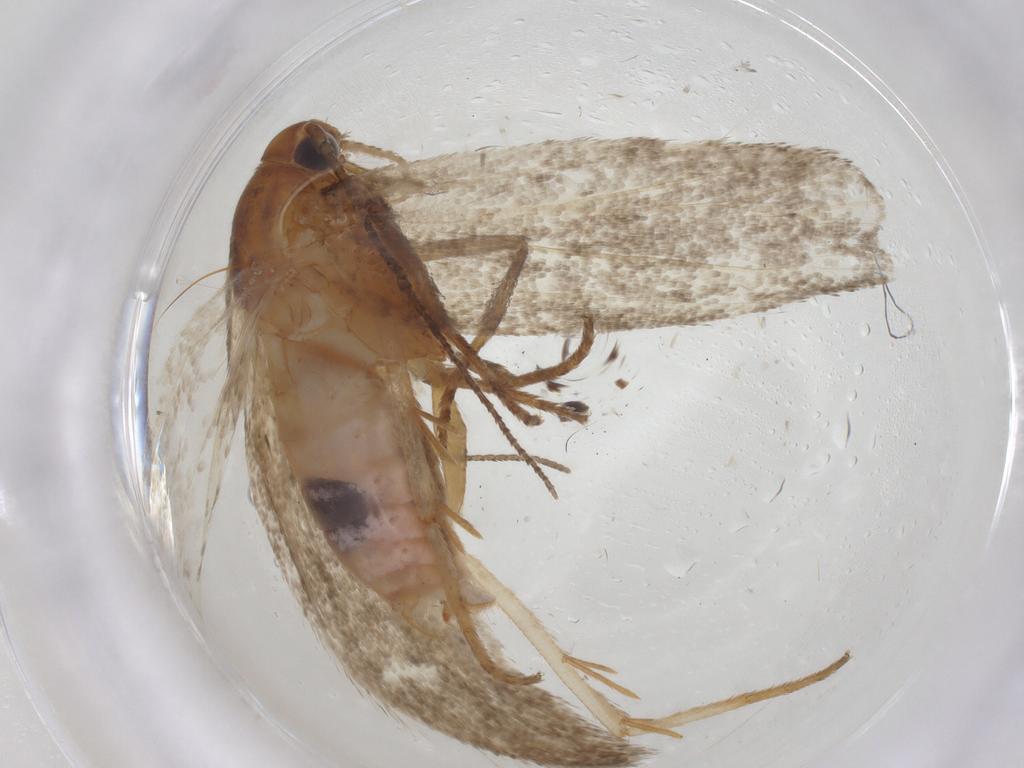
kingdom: Animalia
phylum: Arthropoda
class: Insecta
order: Lepidoptera
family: Cosmopterigidae
